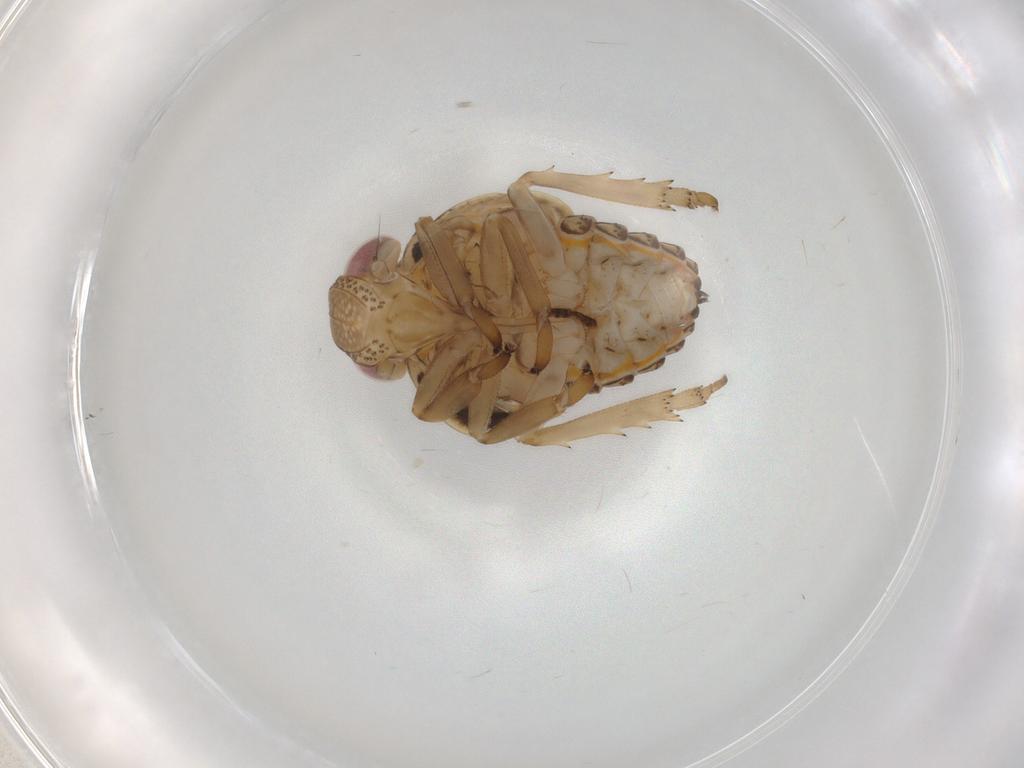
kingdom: Animalia
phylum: Arthropoda
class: Insecta
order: Hemiptera
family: Issidae
